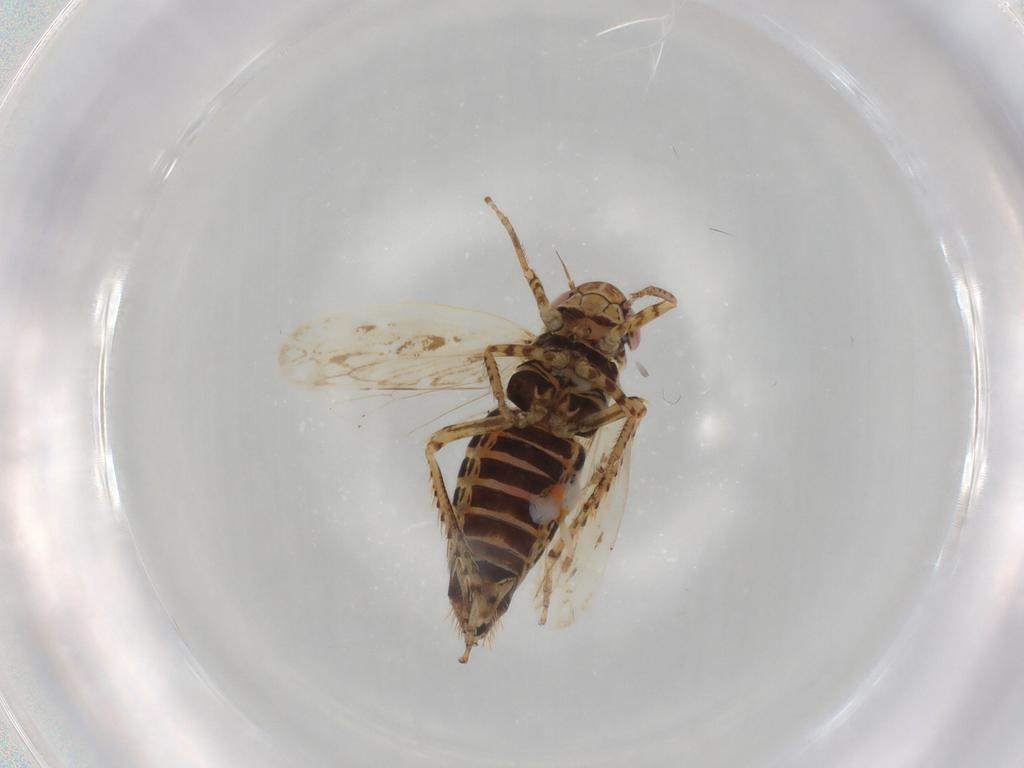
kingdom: Animalia
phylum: Arthropoda
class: Insecta
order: Hemiptera
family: Cicadellidae
